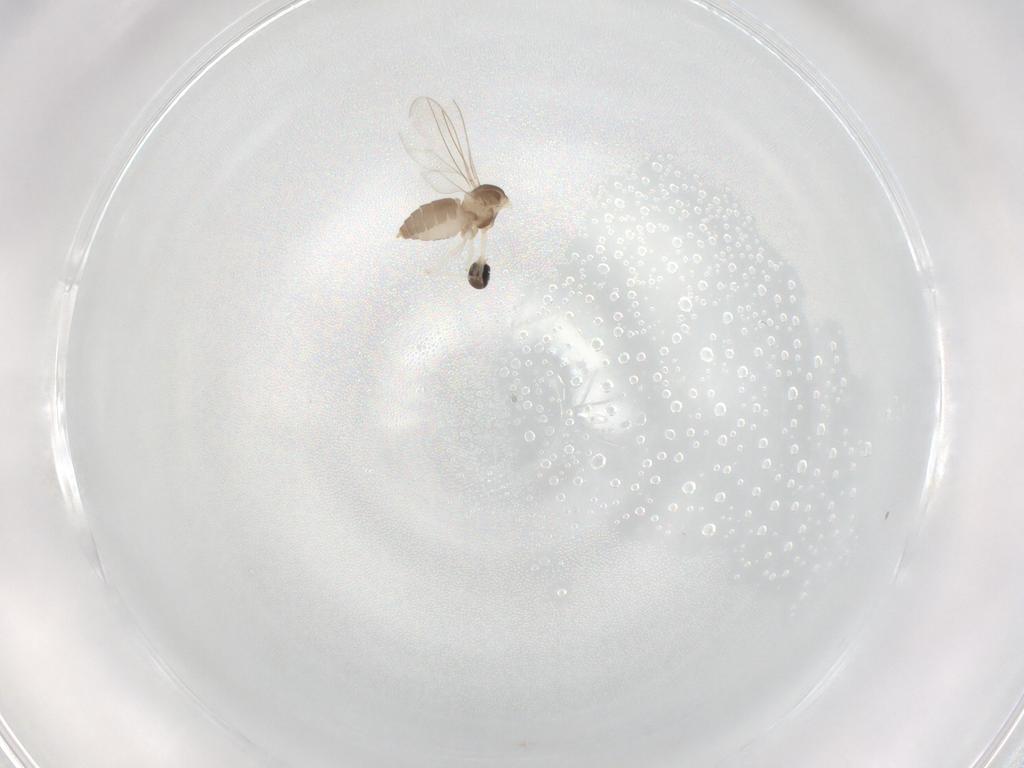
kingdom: Animalia
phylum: Arthropoda
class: Insecta
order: Diptera
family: Cecidomyiidae
